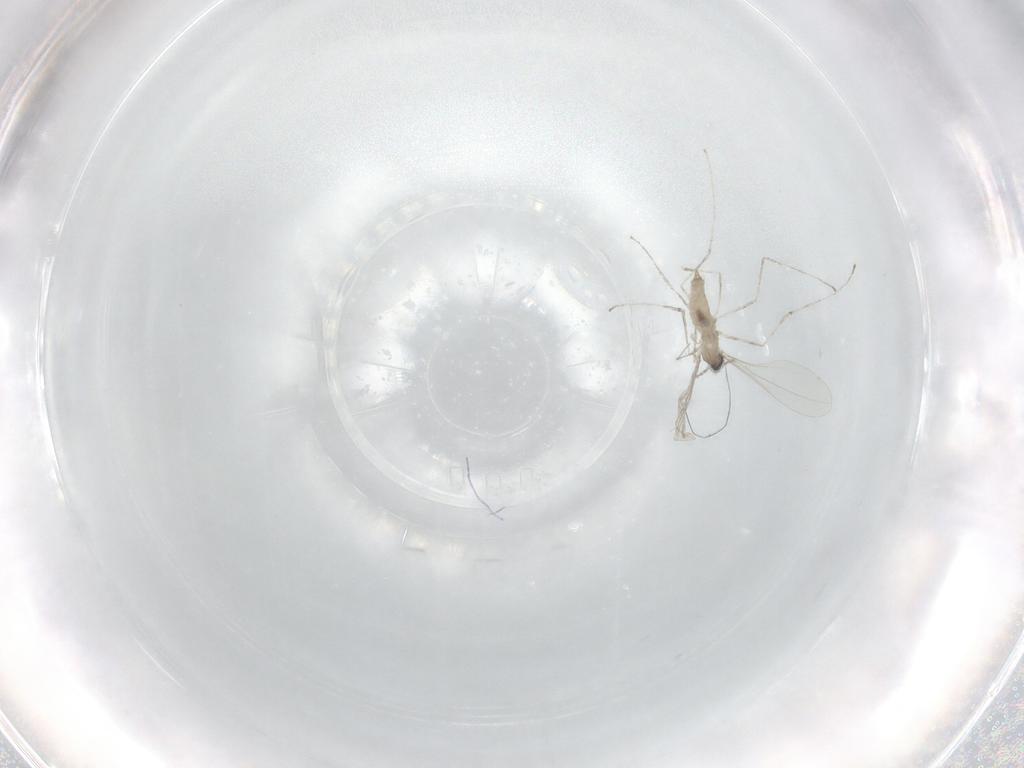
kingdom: Animalia
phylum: Arthropoda
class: Insecta
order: Diptera
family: Cecidomyiidae
